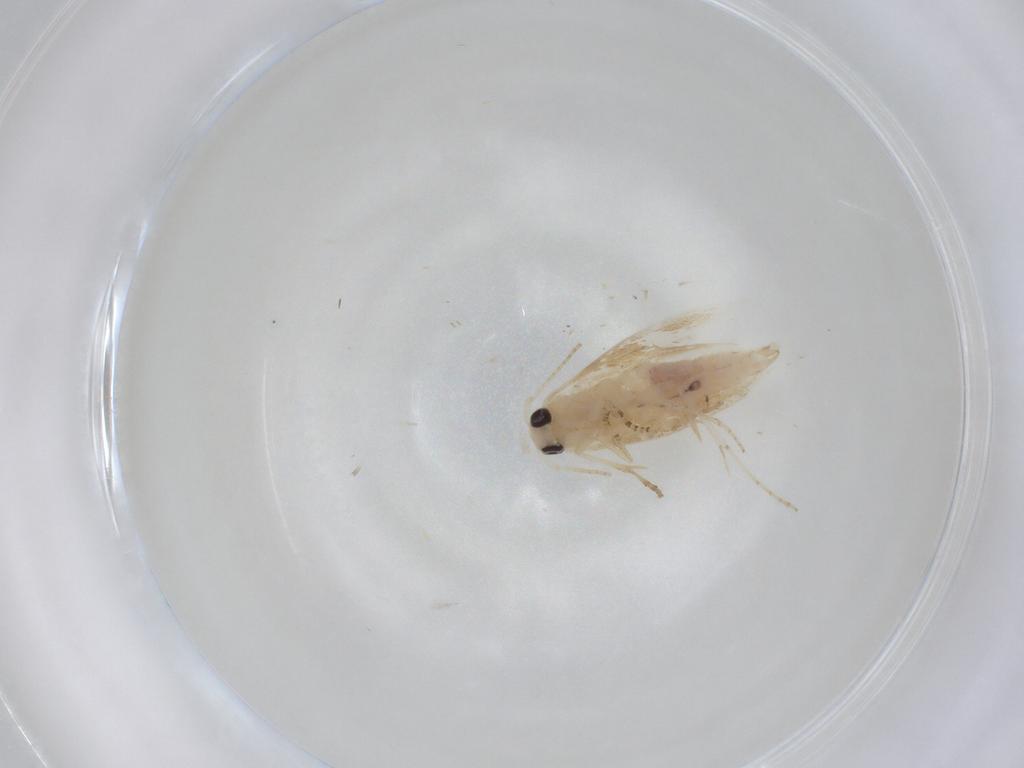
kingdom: Animalia
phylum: Arthropoda
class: Insecta
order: Lepidoptera
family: Bucculatricidae
